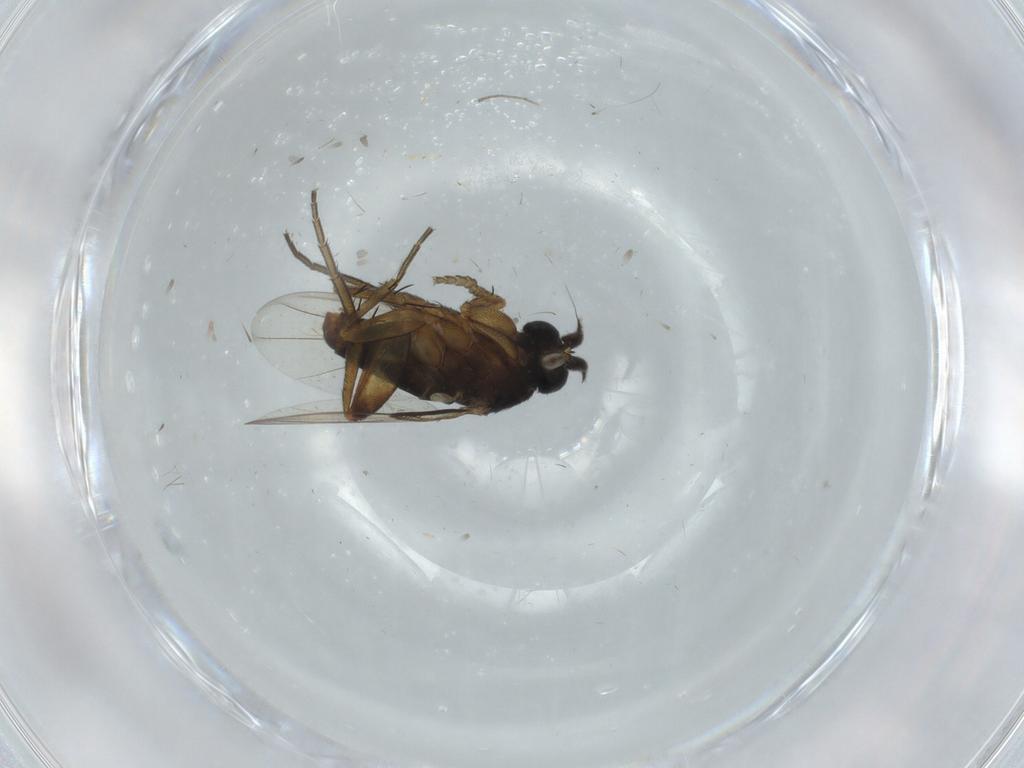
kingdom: Animalia
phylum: Arthropoda
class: Insecta
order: Diptera
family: Phoridae
